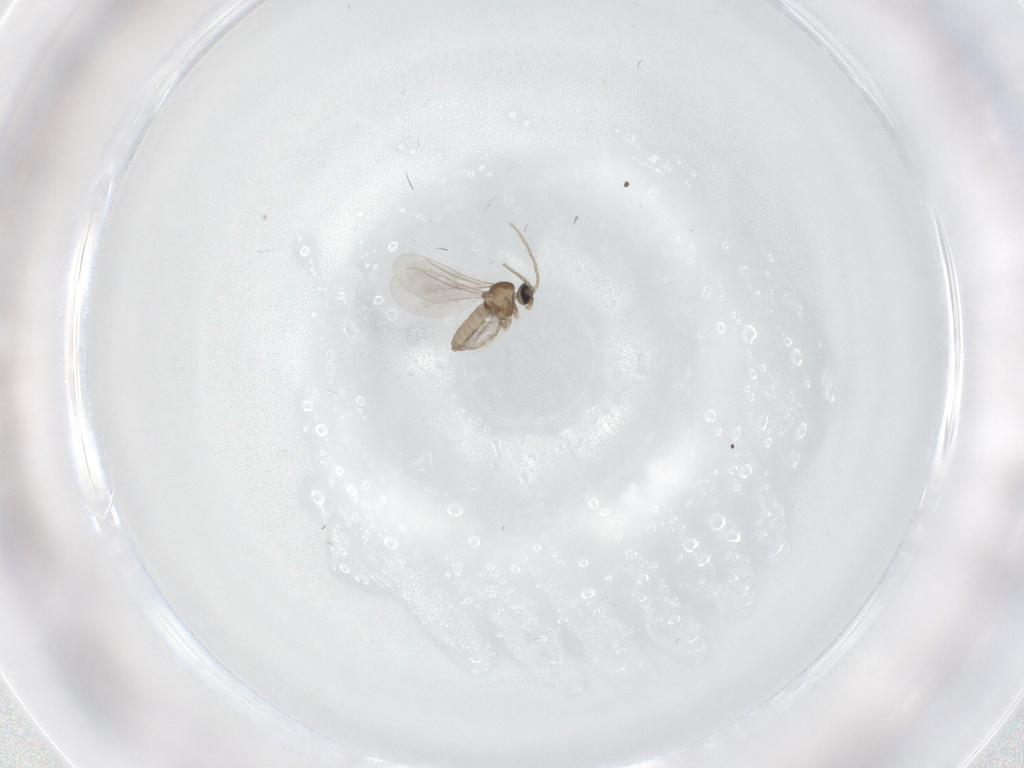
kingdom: Animalia
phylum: Arthropoda
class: Insecta
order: Diptera
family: Cecidomyiidae
